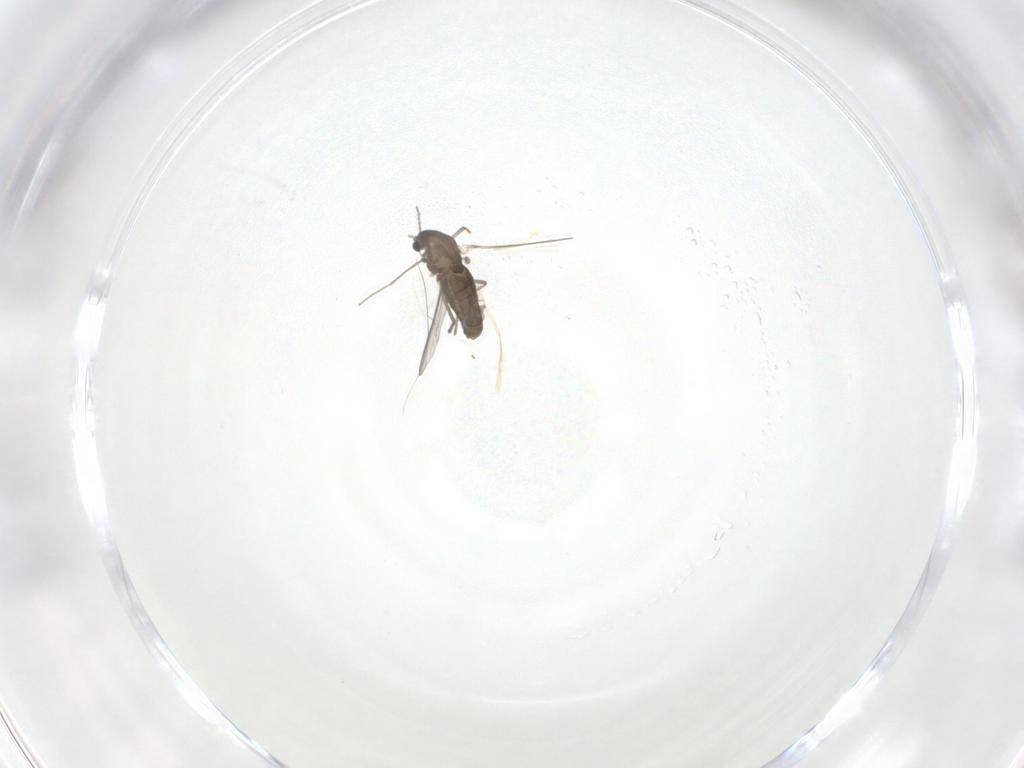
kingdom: Animalia
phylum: Arthropoda
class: Insecta
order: Diptera
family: Chironomidae
